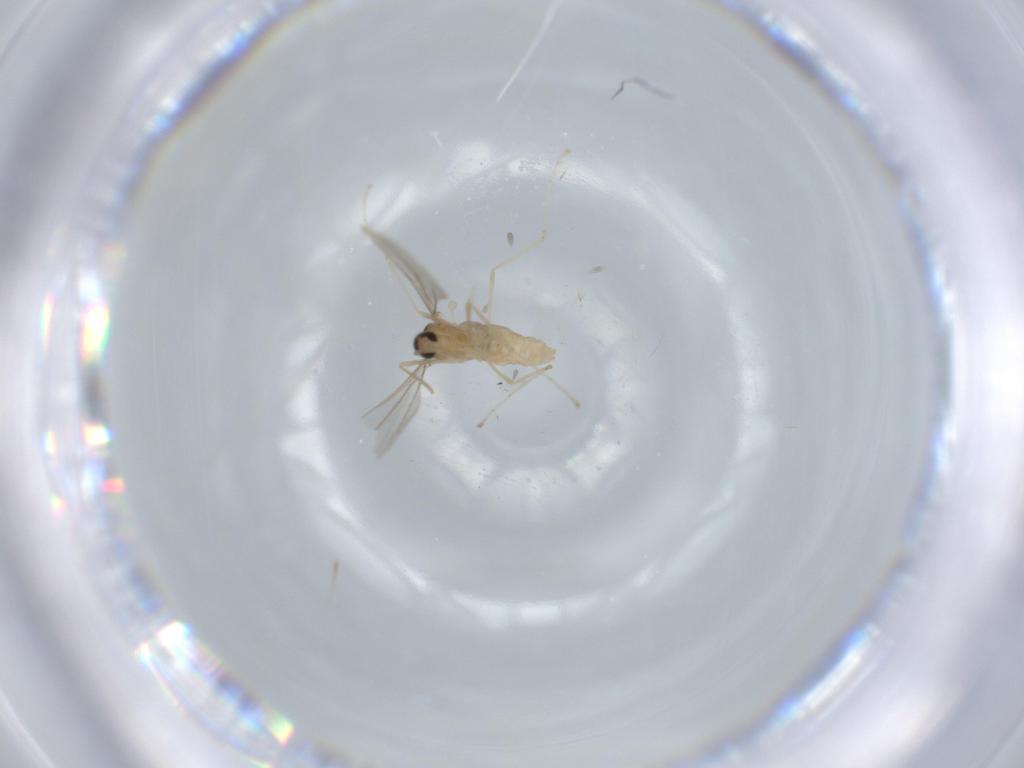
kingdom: Animalia
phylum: Arthropoda
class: Insecta
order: Diptera
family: Cecidomyiidae
